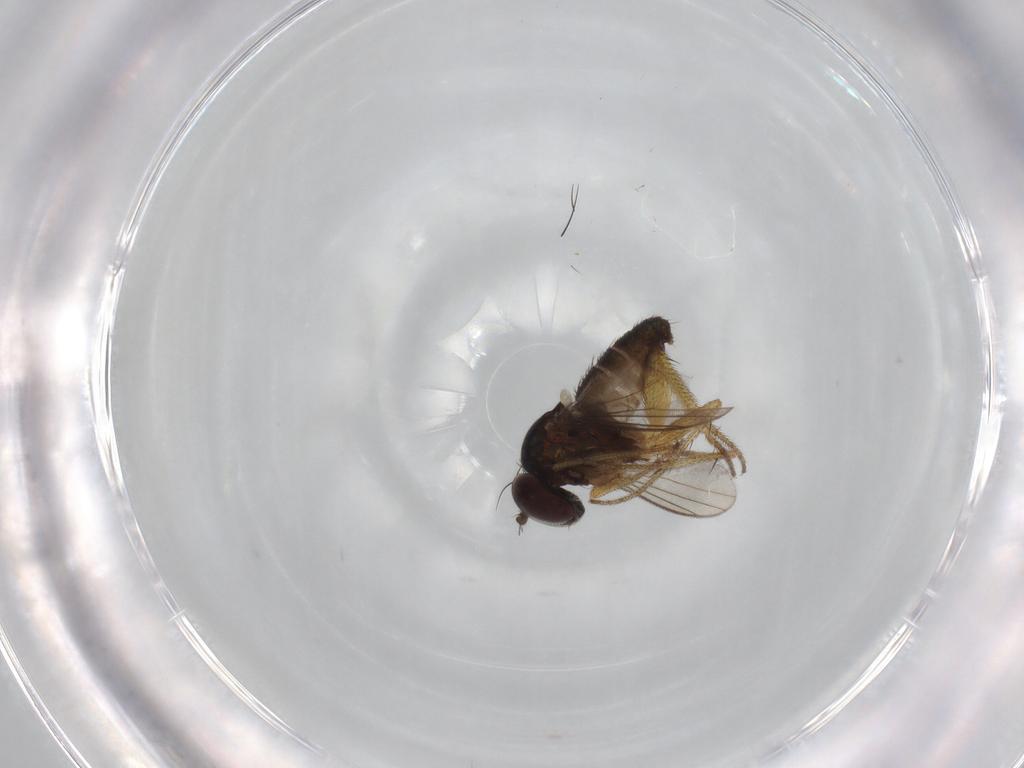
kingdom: Animalia
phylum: Arthropoda
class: Insecta
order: Diptera
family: Dolichopodidae
